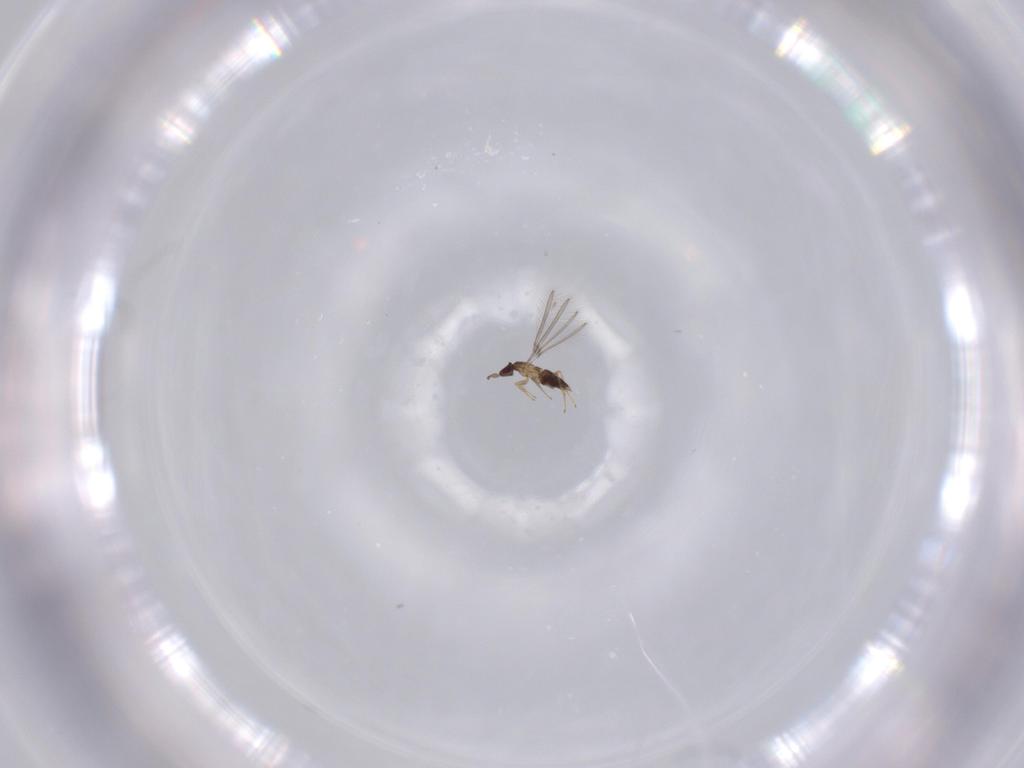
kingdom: Animalia
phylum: Arthropoda
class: Insecta
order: Hymenoptera
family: Mymaridae
